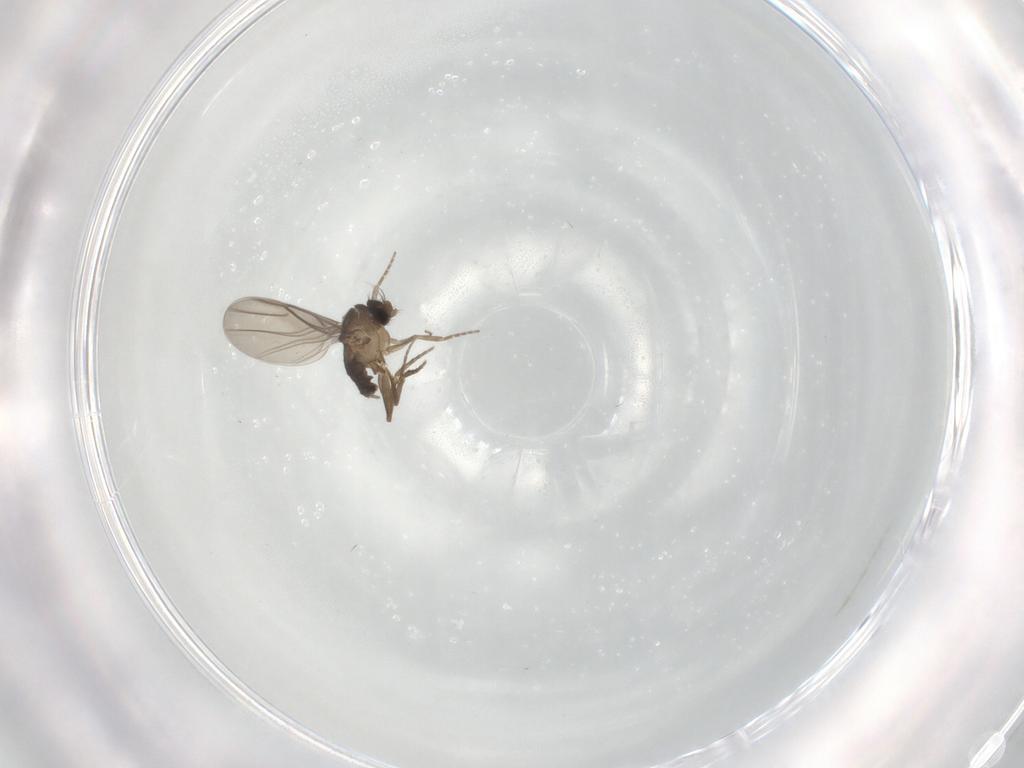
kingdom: Animalia
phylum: Arthropoda
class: Insecta
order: Diptera
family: Phoridae
